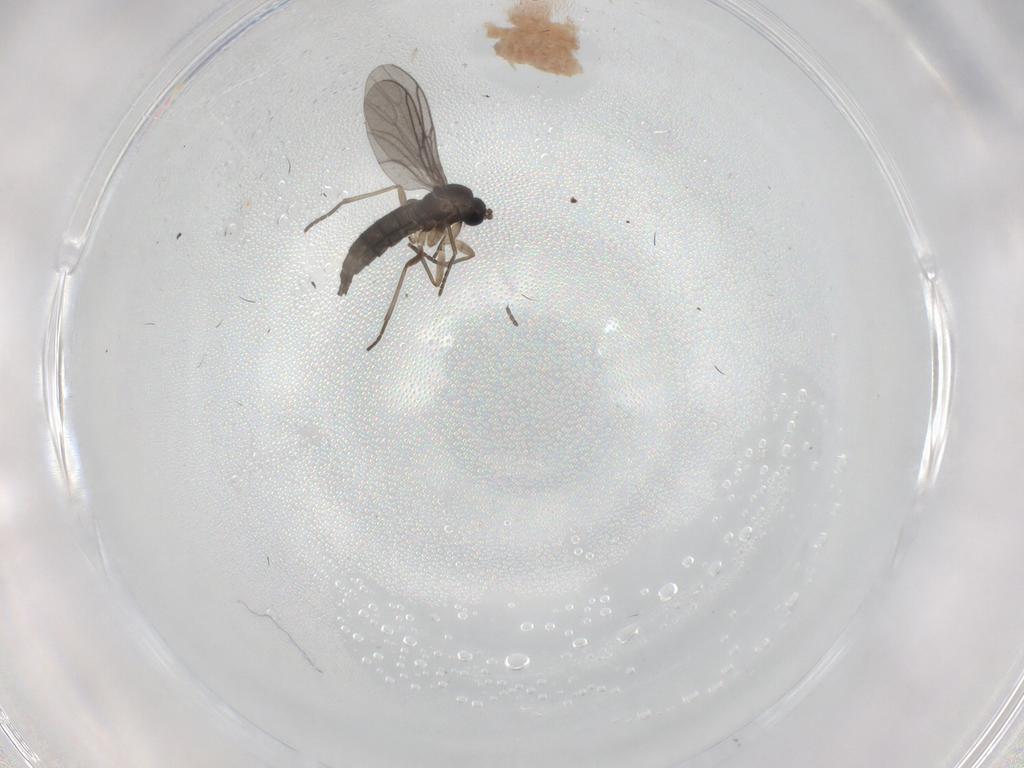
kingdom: Animalia
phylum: Arthropoda
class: Insecta
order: Diptera
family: Sciaridae
